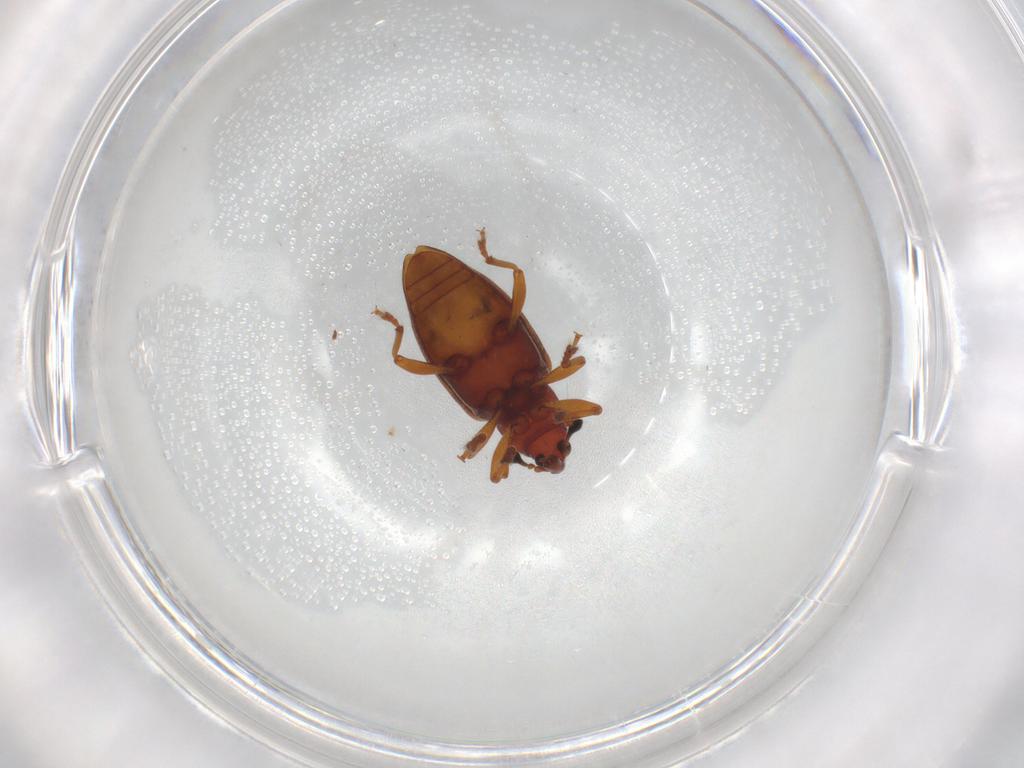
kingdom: Animalia
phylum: Arthropoda
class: Insecta
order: Coleoptera
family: Curculionidae
